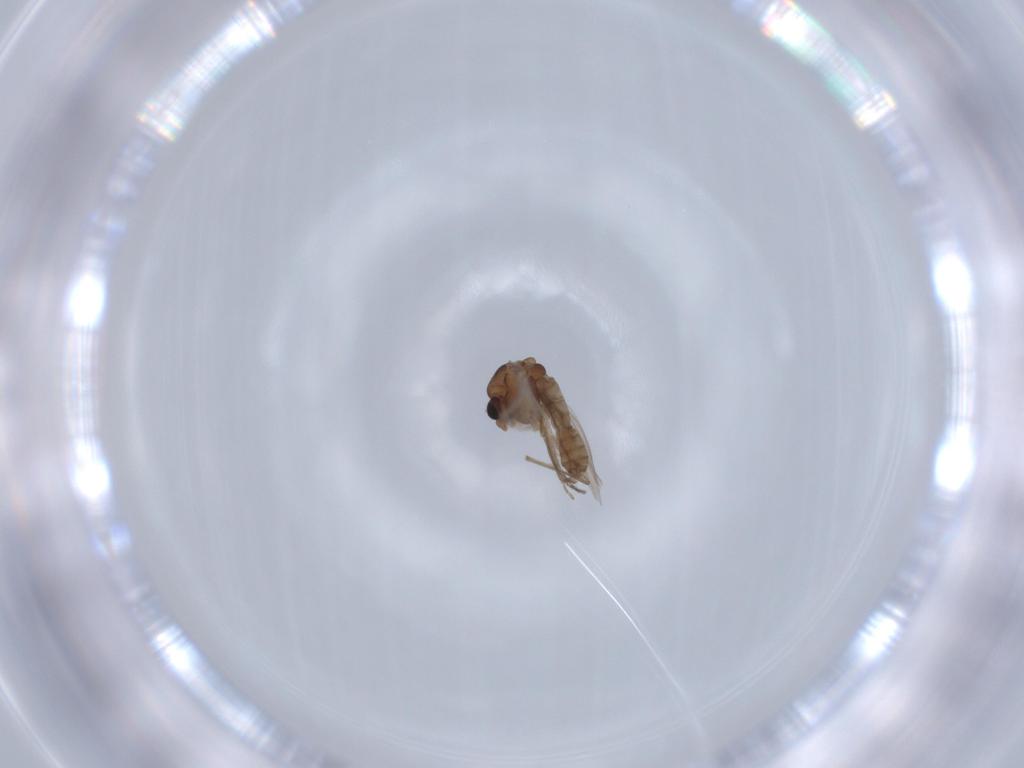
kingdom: Animalia
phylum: Arthropoda
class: Insecta
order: Diptera
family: Chironomidae
